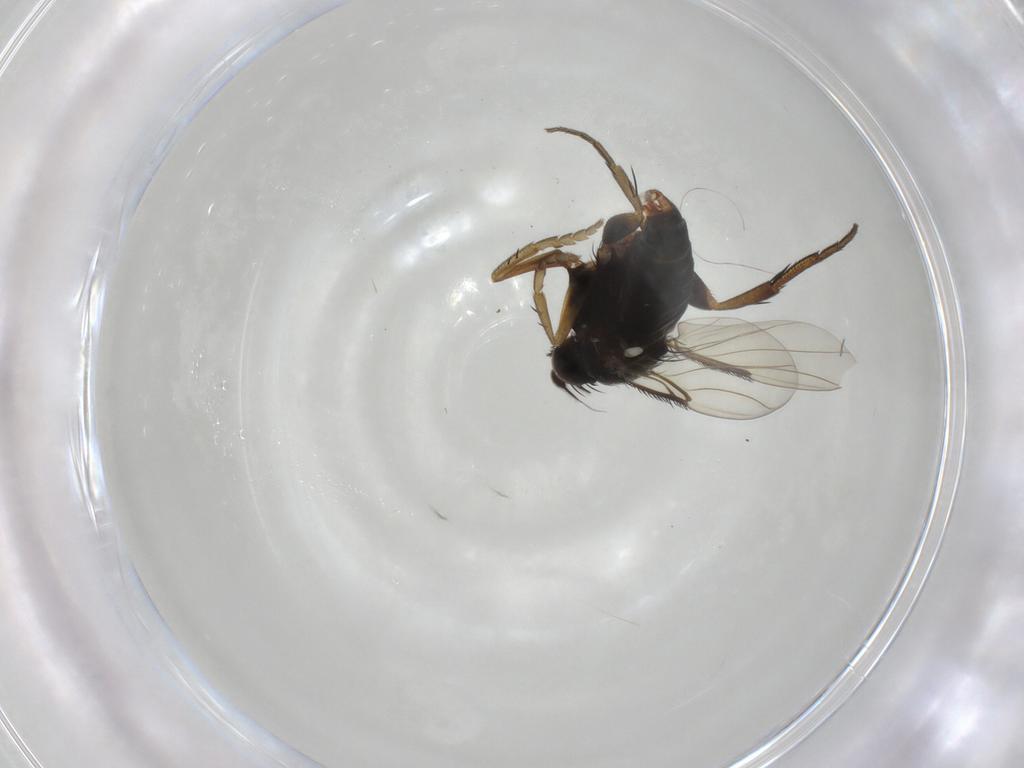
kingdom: Animalia
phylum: Arthropoda
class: Insecta
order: Diptera
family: Phoridae
